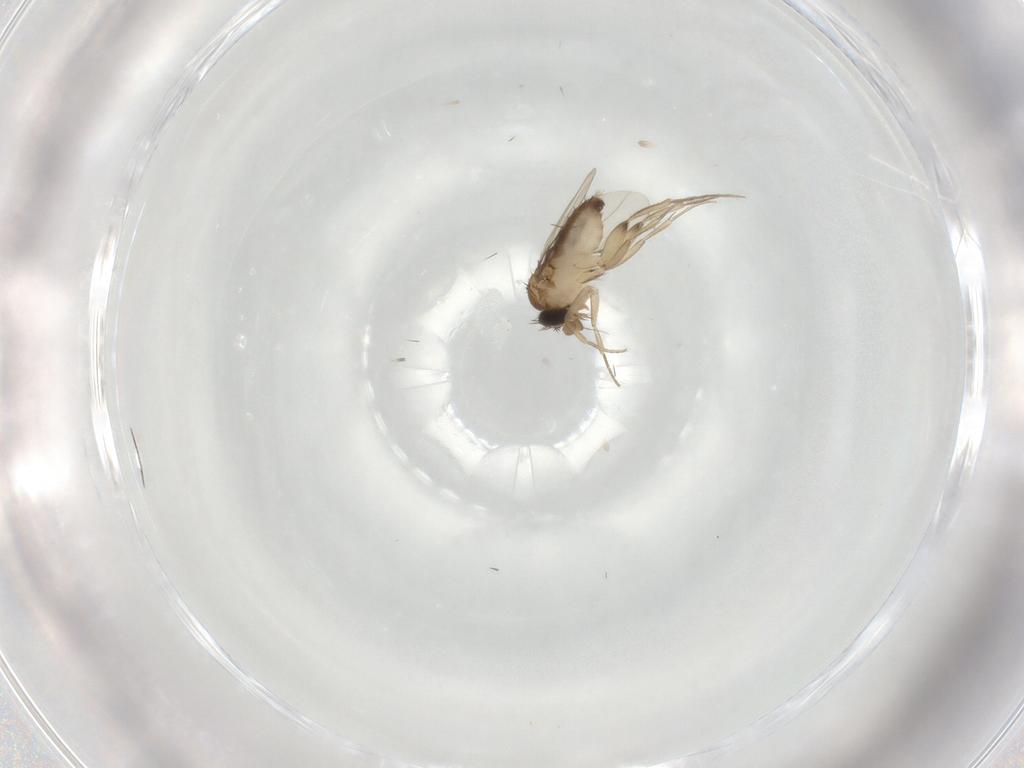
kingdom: Animalia
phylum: Arthropoda
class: Insecta
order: Diptera
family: Phoridae
